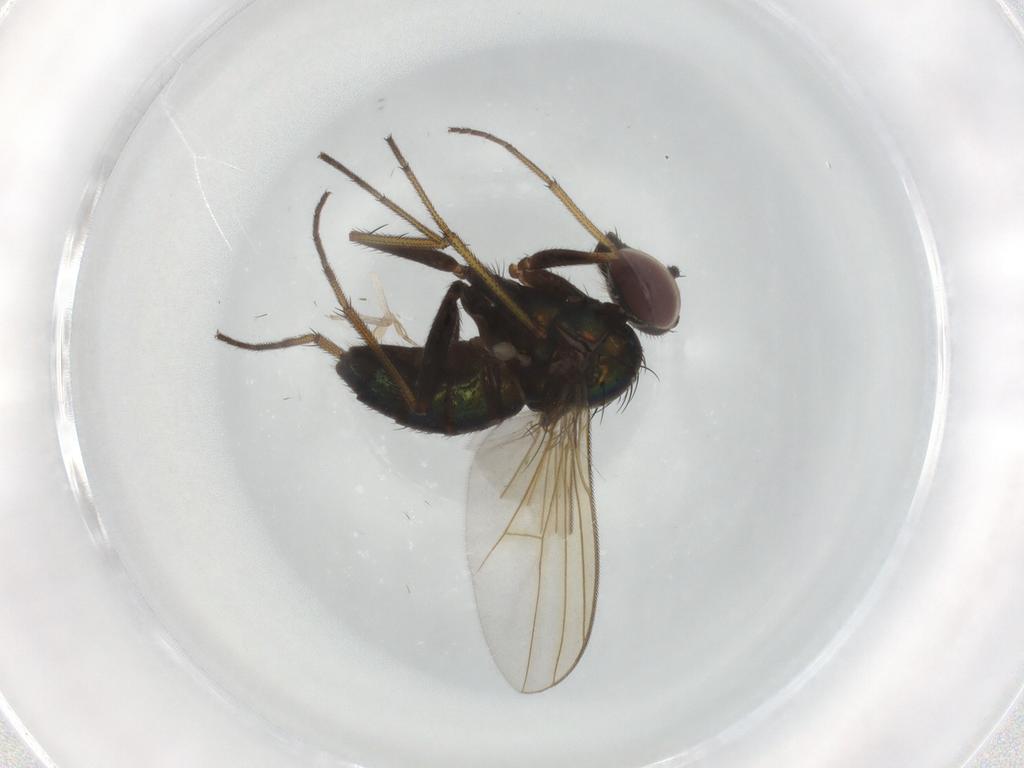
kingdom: Animalia
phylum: Arthropoda
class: Insecta
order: Diptera
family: Dolichopodidae
